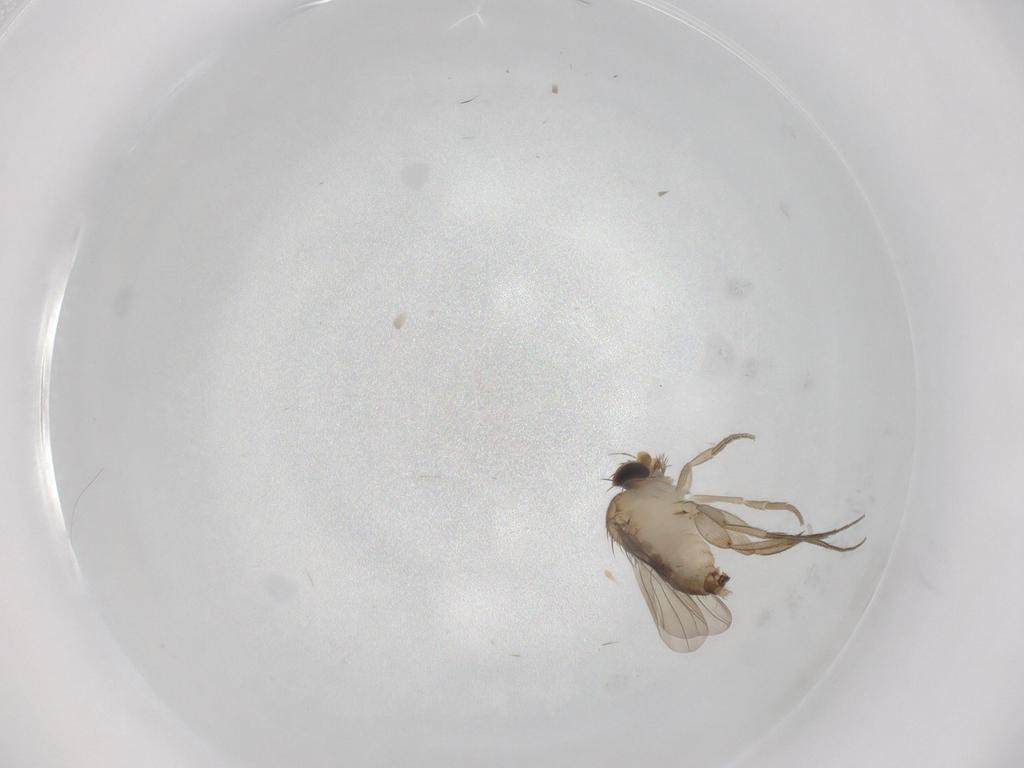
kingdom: Animalia
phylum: Arthropoda
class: Insecta
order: Diptera
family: Phoridae
